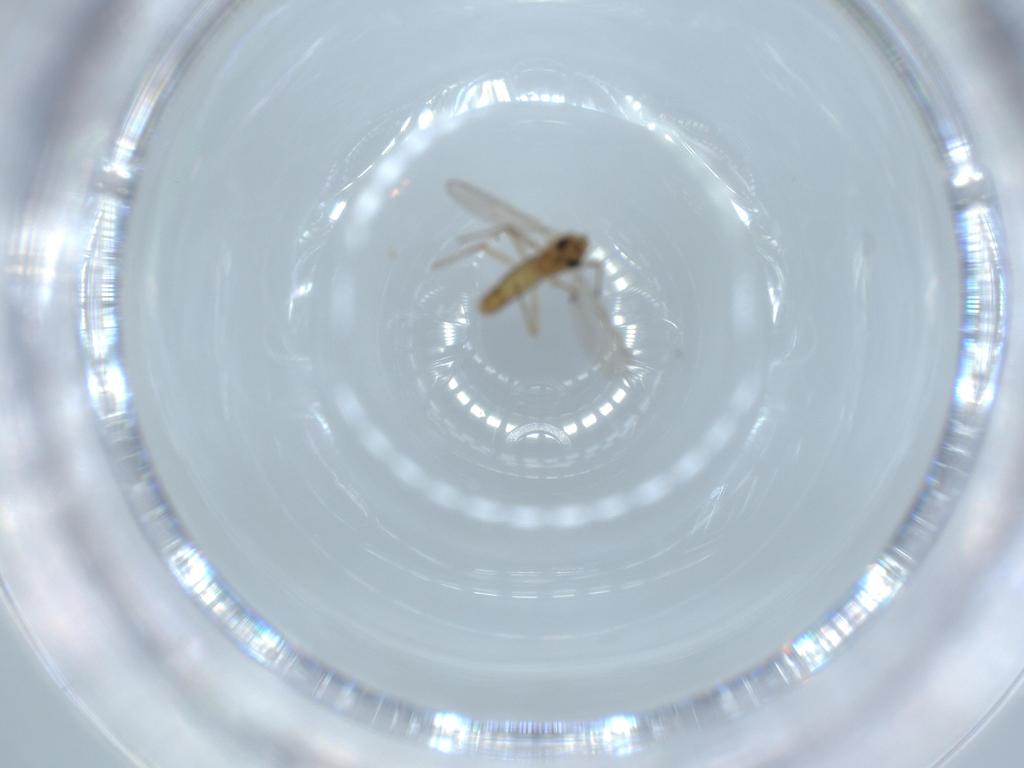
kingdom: Animalia
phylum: Arthropoda
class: Insecta
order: Diptera
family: Chironomidae
